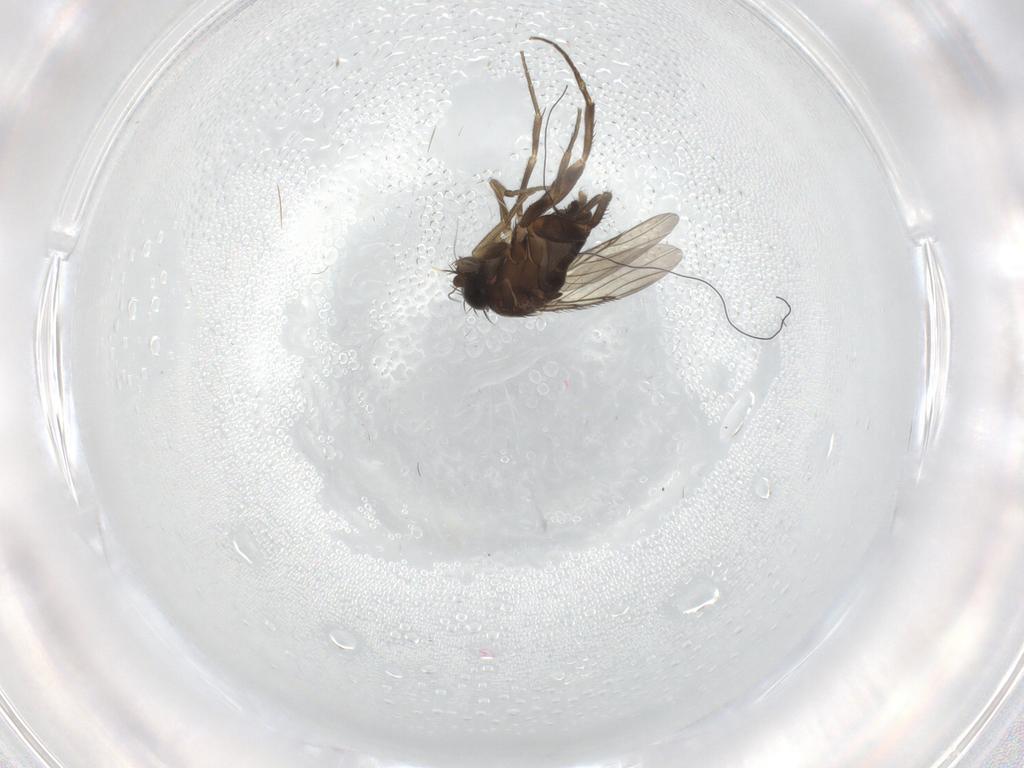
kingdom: Animalia
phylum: Arthropoda
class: Insecta
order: Diptera
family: Phoridae
